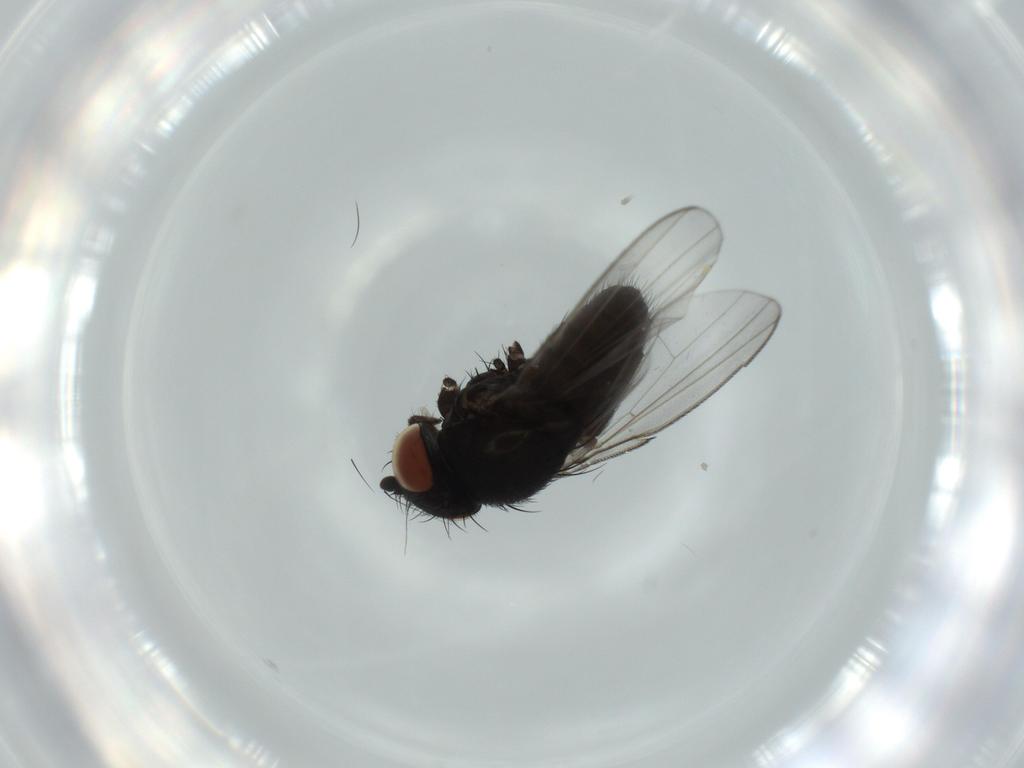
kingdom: Animalia
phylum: Arthropoda
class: Insecta
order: Diptera
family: Milichiidae
